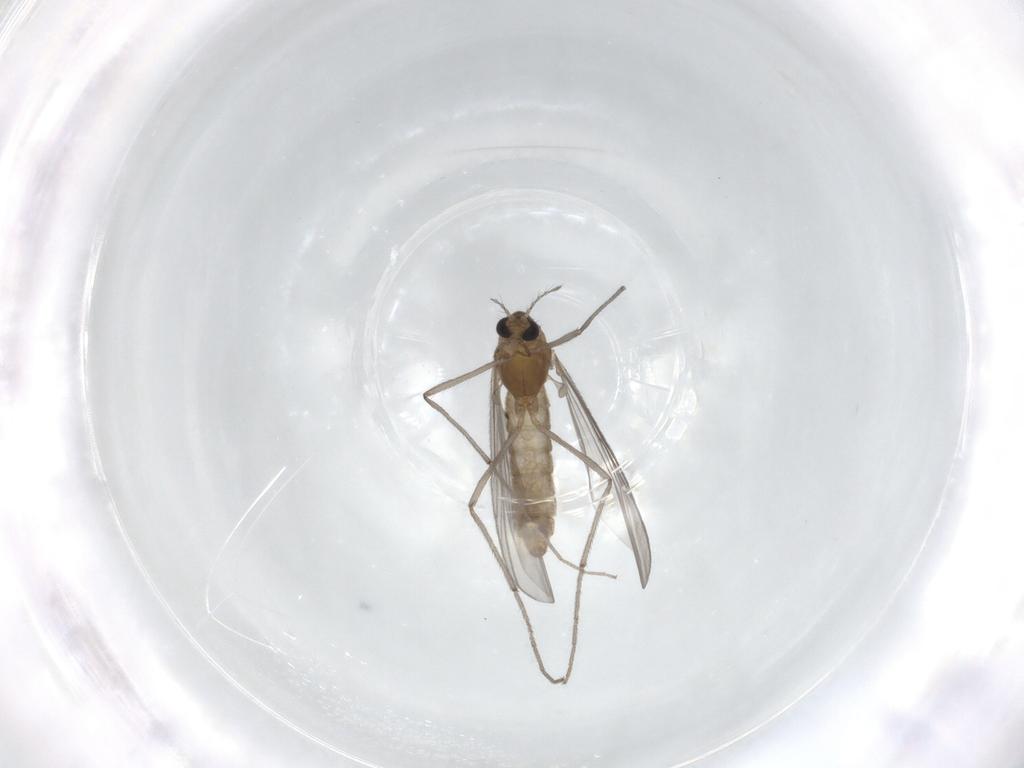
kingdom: Animalia
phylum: Arthropoda
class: Insecta
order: Diptera
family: Chironomidae
